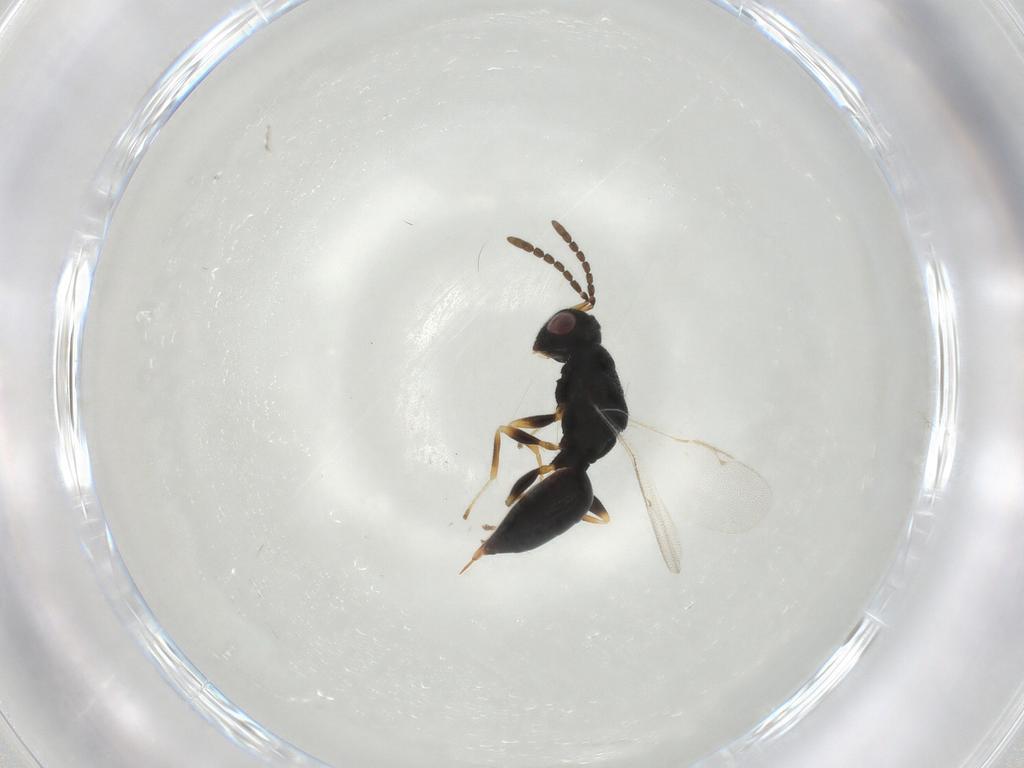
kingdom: Animalia
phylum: Arthropoda
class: Insecta
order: Hymenoptera
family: Eurytomidae
